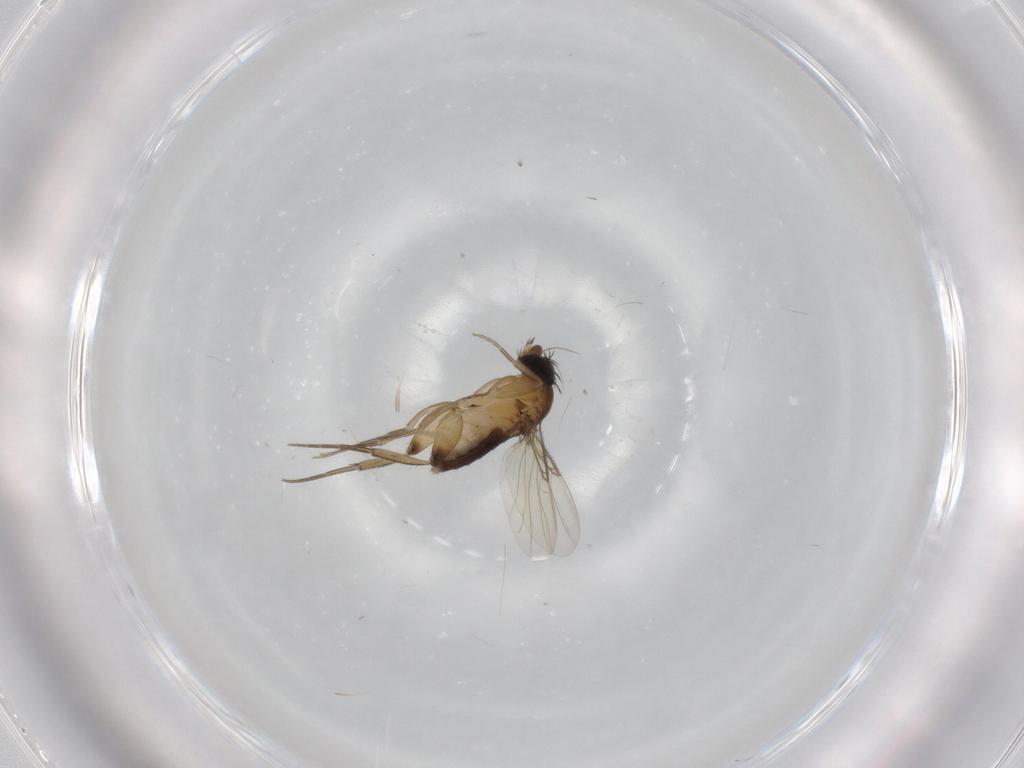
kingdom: Animalia
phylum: Arthropoda
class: Insecta
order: Diptera
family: Phoridae
